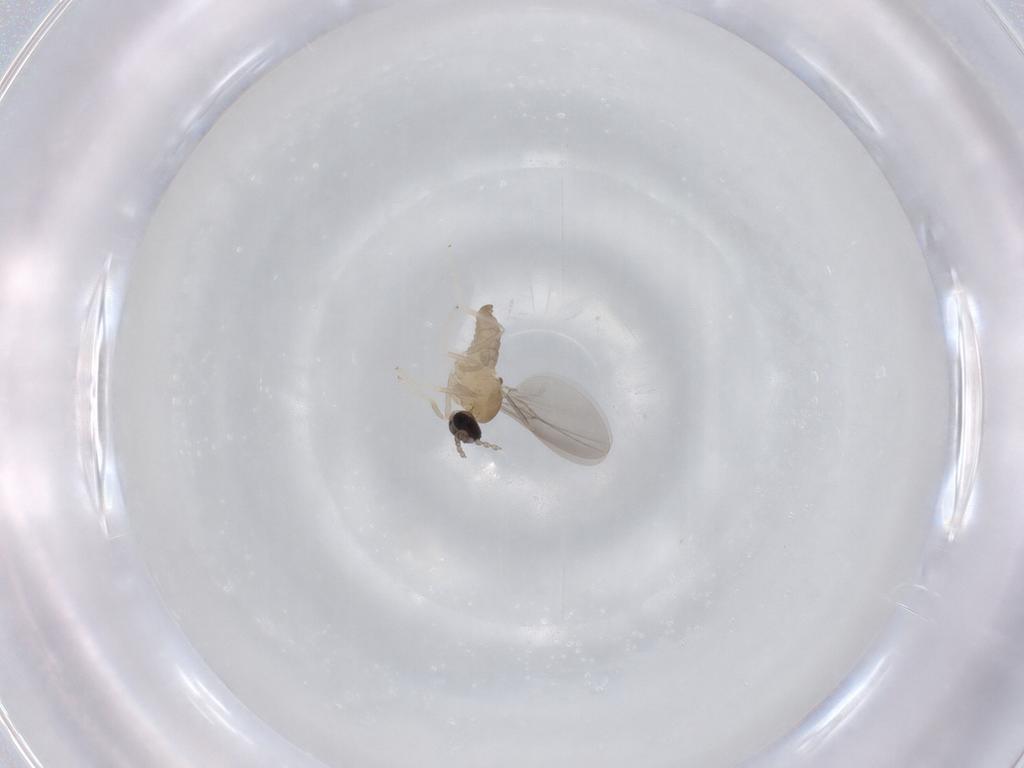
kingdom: Animalia
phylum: Arthropoda
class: Insecta
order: Diptera
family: Cecidomyiidae
